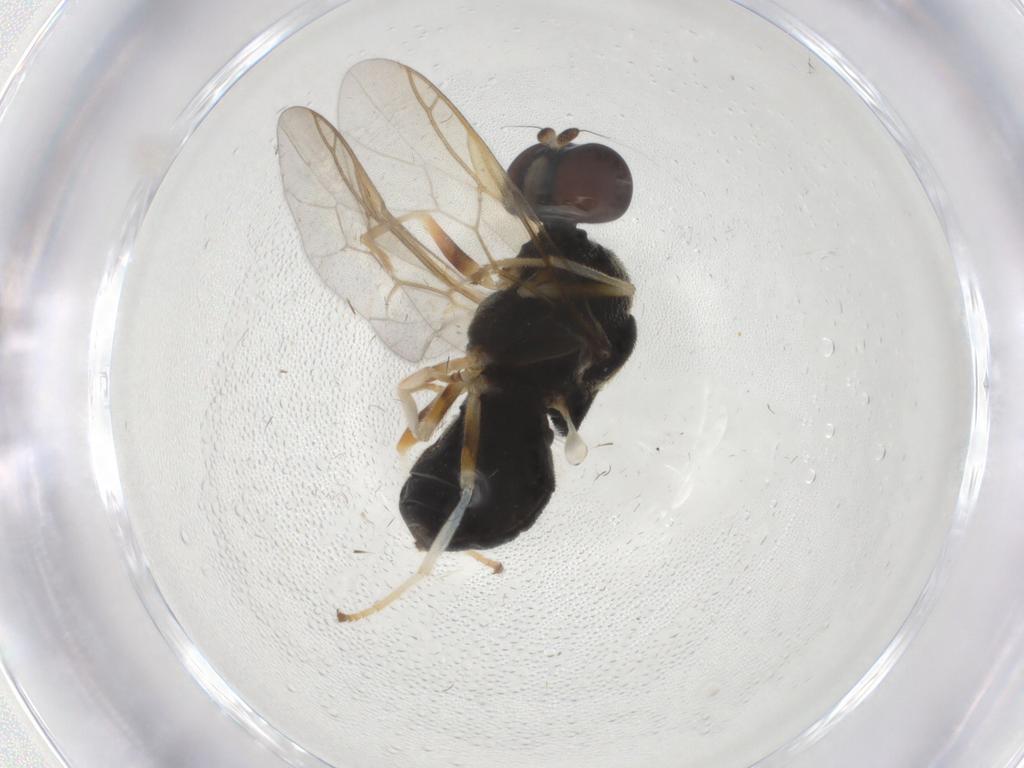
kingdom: Animalia
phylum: Arthropoda
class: Insecta
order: Diptera
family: Stratiomyidae
